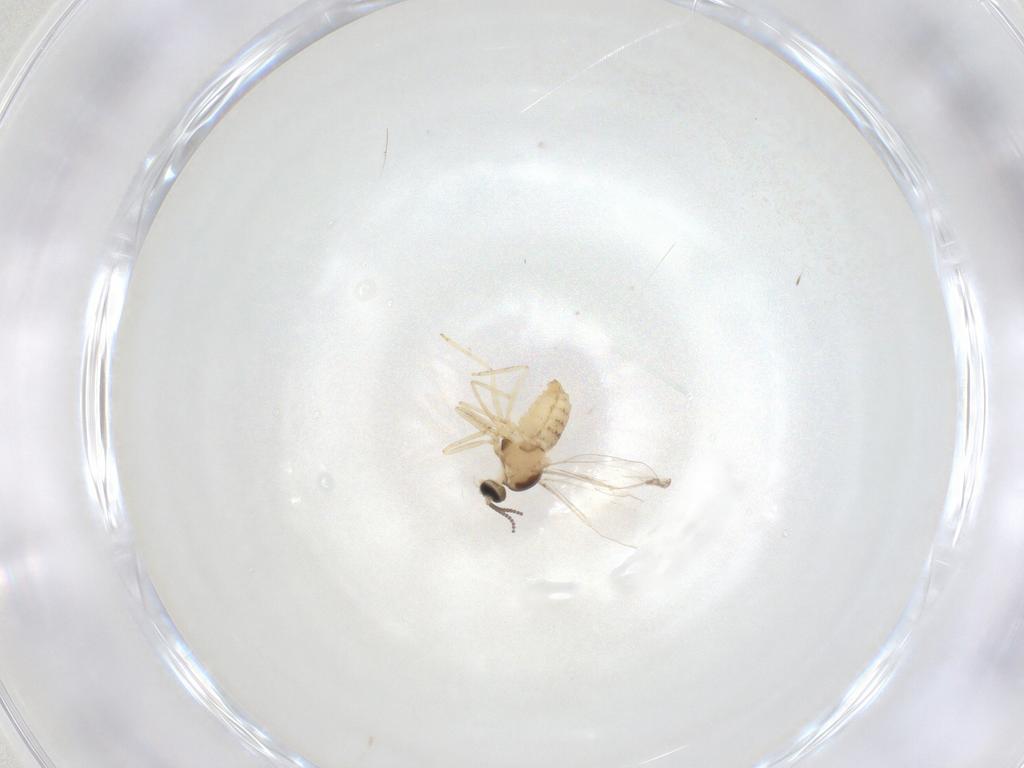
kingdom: Animalia
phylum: Arthropoda
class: Insecta
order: Diptera
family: Cecidomyiidae
